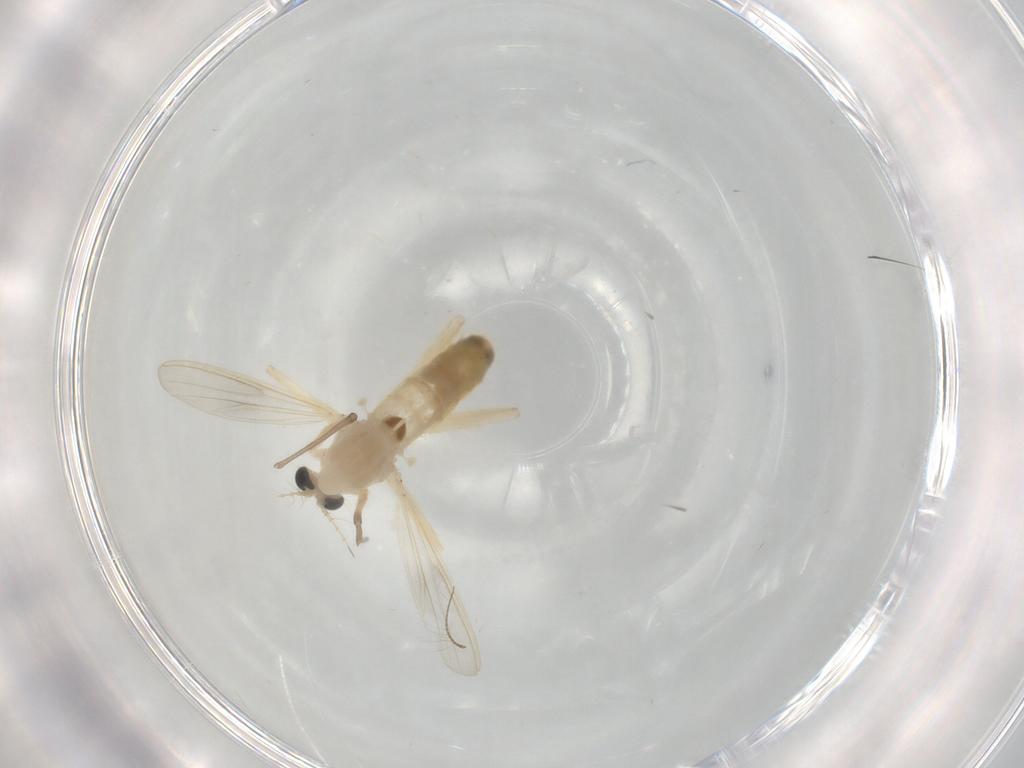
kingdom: Animalia
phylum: Arthropoda
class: Insecta
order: Diptera
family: Chironomidae
